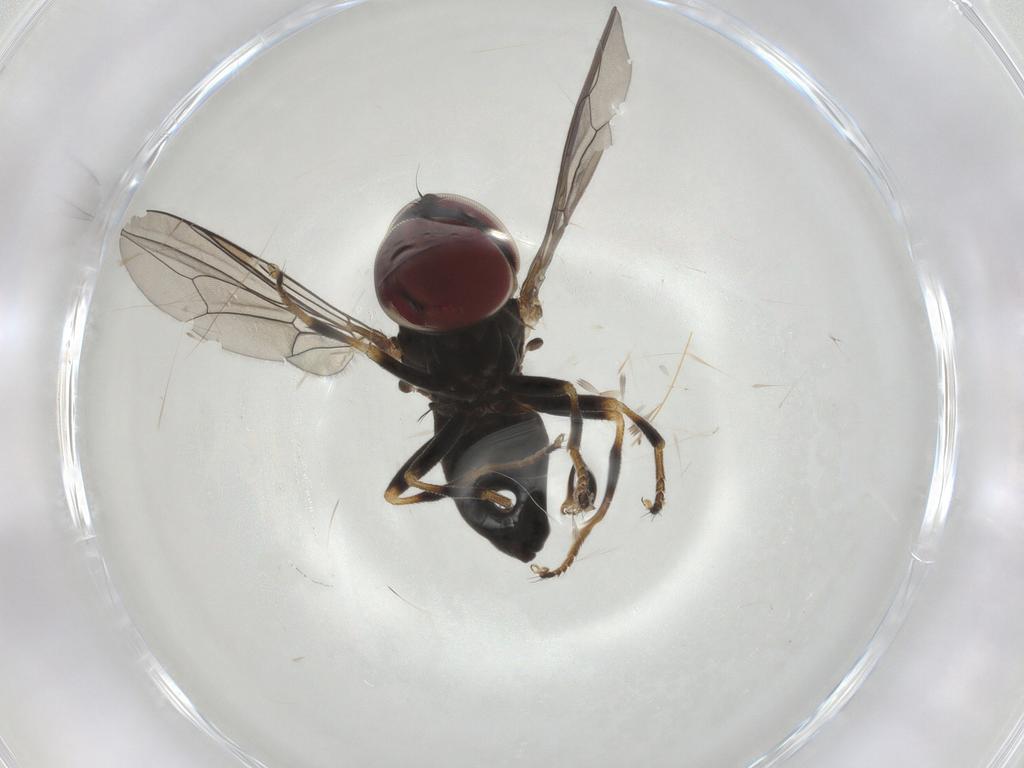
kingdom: Animalia
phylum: Arthropoda
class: Insecta
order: Diptera
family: Pipunculidae
